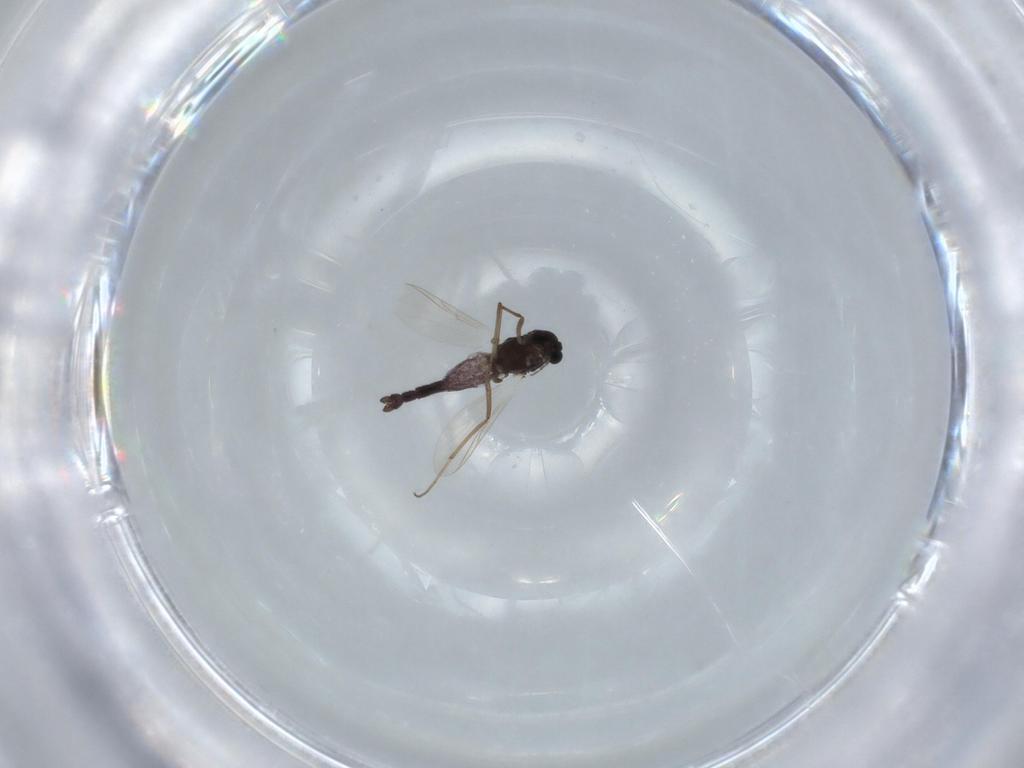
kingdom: Animalia
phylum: Arthropoda
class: Insecta
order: Diptera
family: Chironomidae
